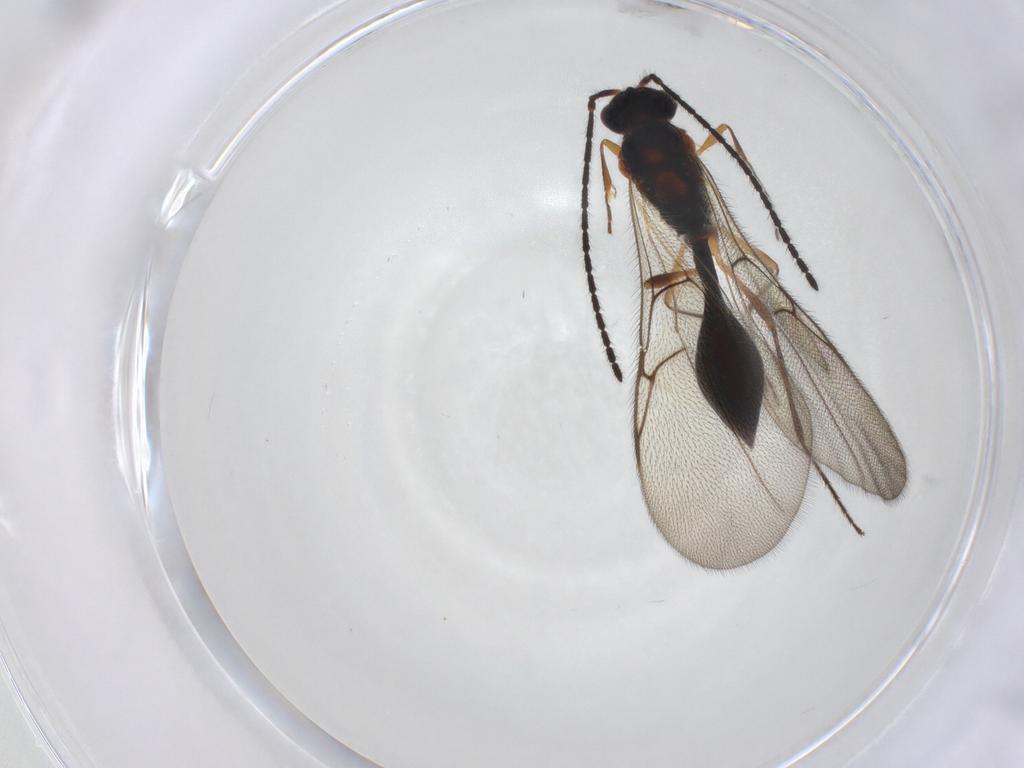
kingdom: Animalia
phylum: Arthropoda
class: Insecta
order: Hymenoptera
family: Diapriidae
